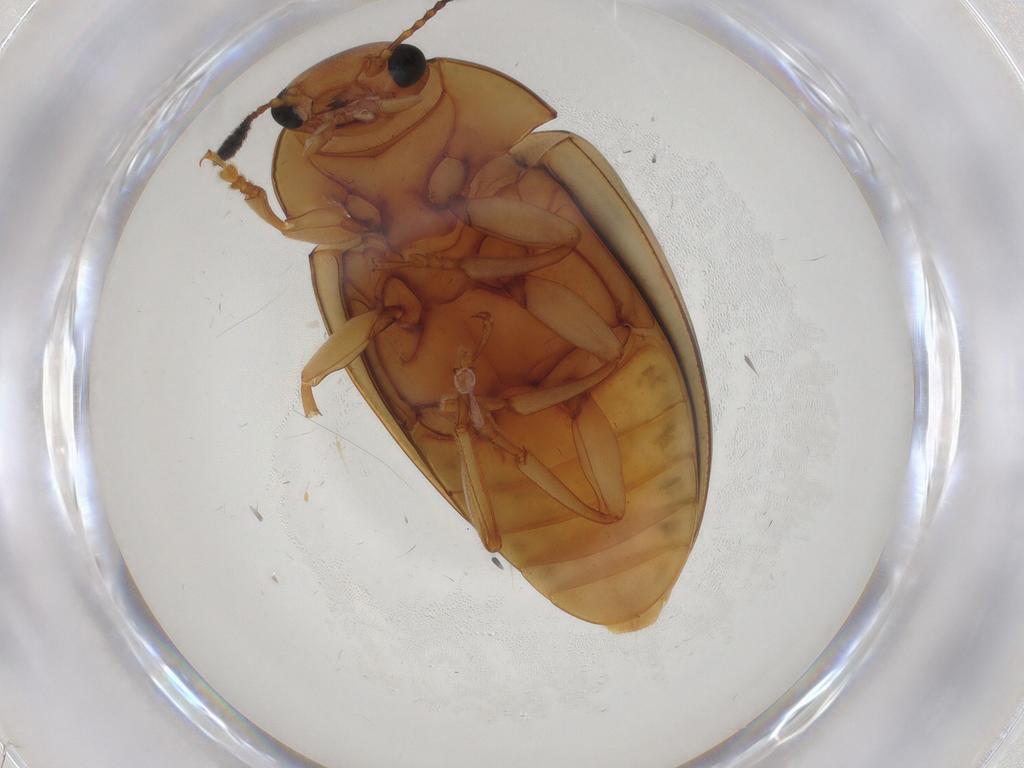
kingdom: Animalia
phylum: Arthropoda
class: Insecta
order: Coleoptera
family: Erotylidae
